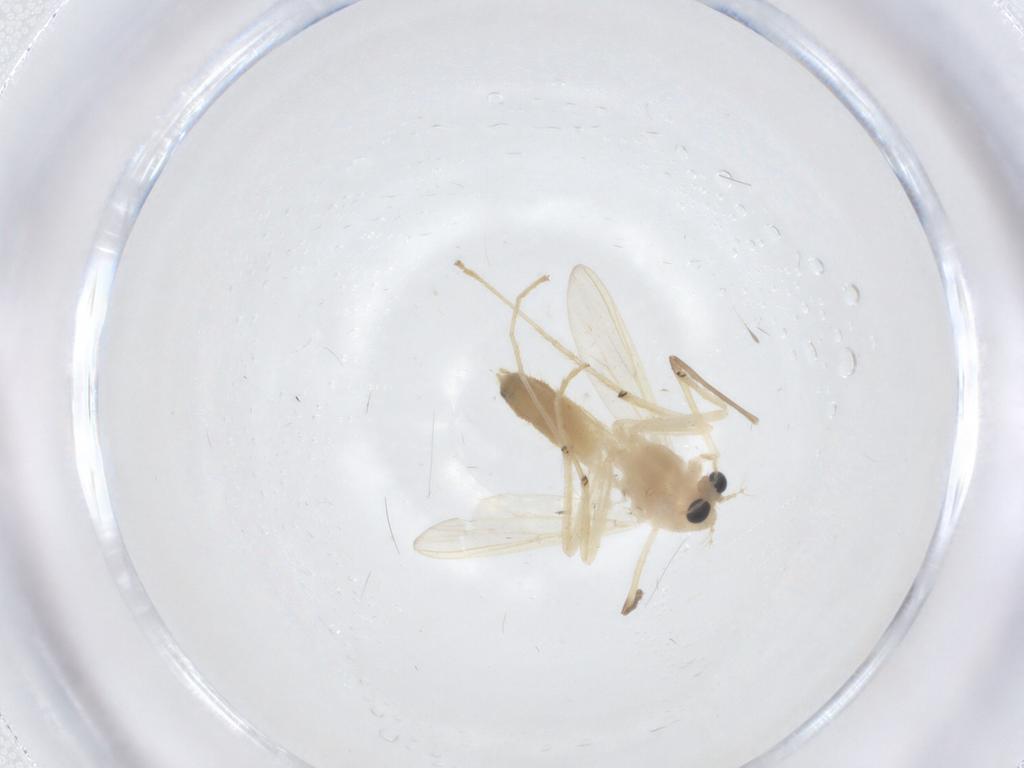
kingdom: Animalia
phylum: Arthropoda
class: Insecta
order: Diptera
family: Chironomidae
